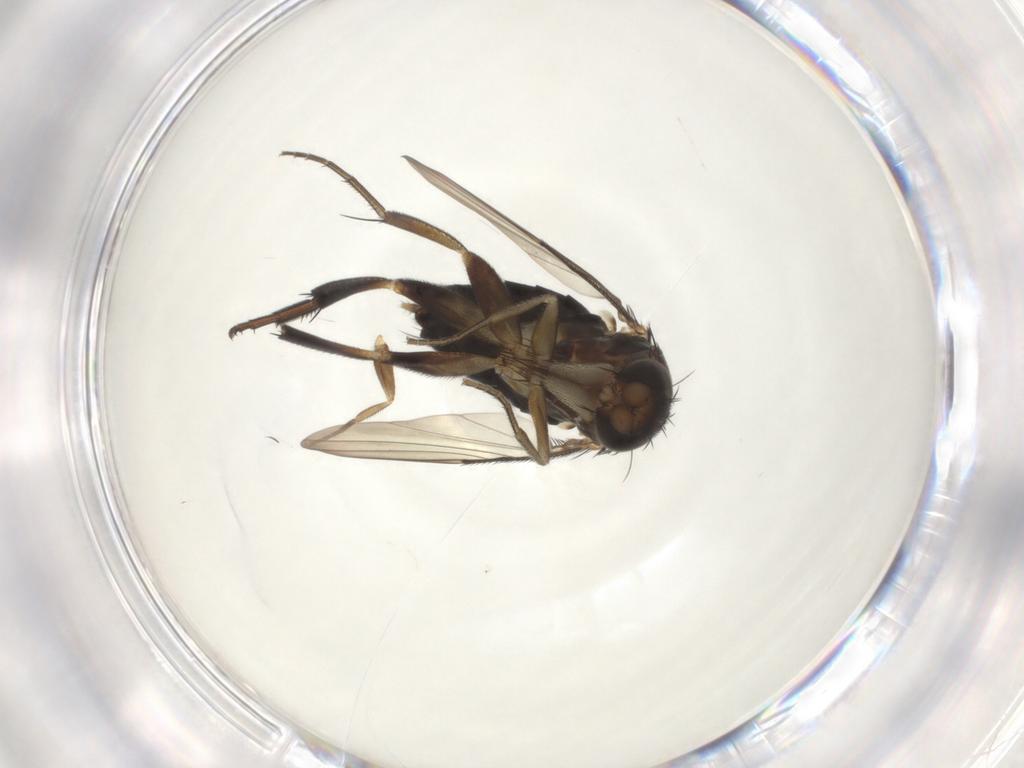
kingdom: Animalia
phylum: Arthropoda
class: Insecta
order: Diptera
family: Phoridae
